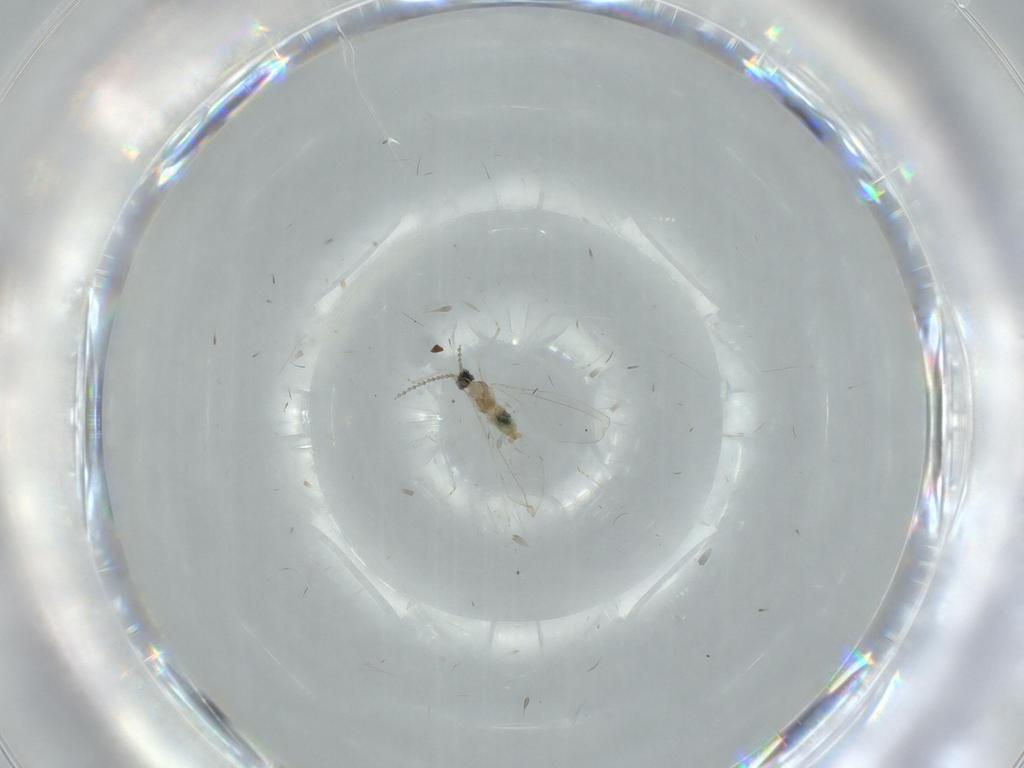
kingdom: Animalia
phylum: Arthropoda
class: Insecta
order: Diptera
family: Cecidomyiidae
